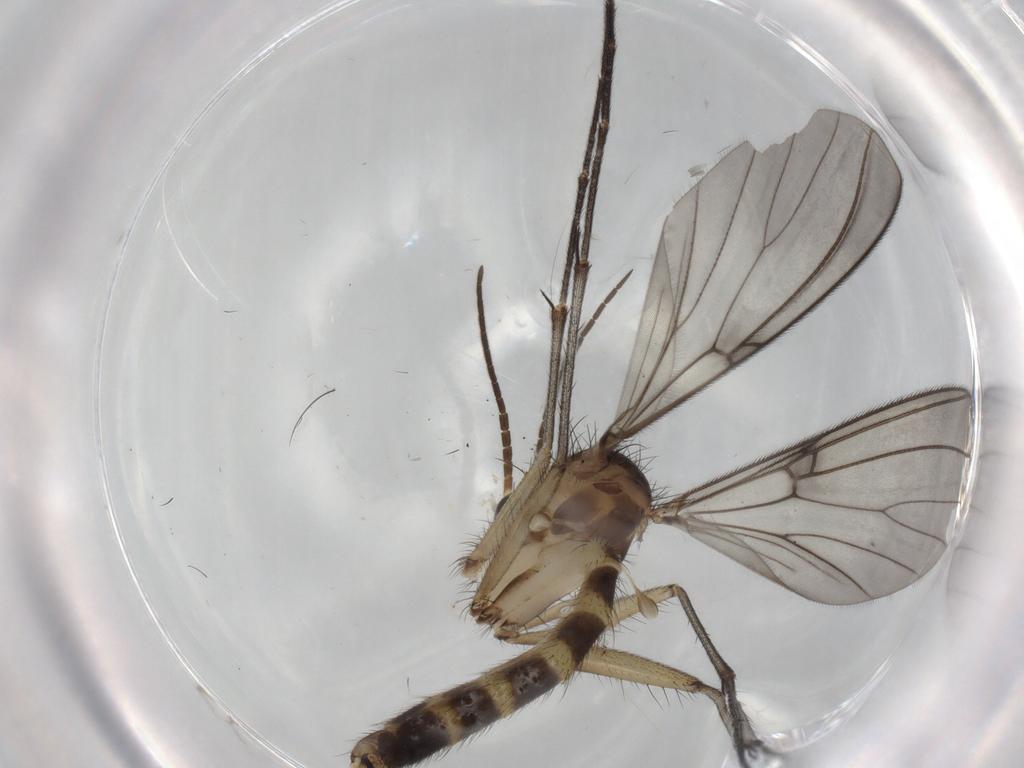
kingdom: Animalia
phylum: Arthropoda
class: Insecta
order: Diptera
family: Mycetophilidae
